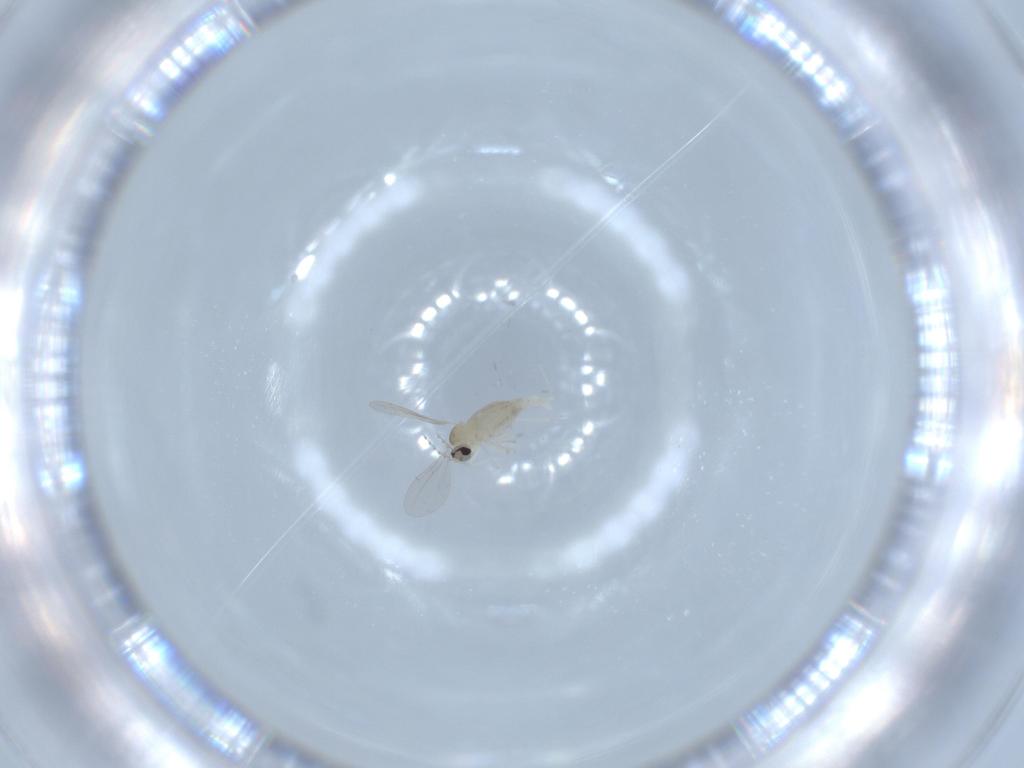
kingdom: Animalia
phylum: Arthropoda
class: Insecta
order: Diptera
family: Cecidomyiidae
